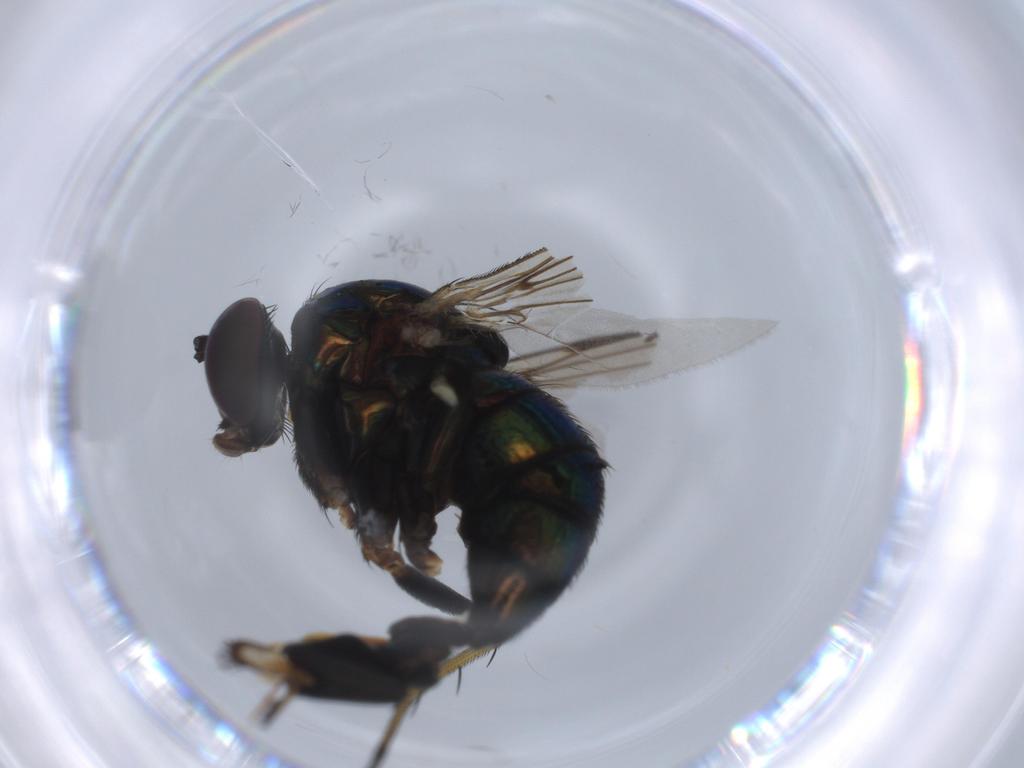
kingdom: Animalia
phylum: Arthropoda
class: Insecta
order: Diptera
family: Dolichopodidae
